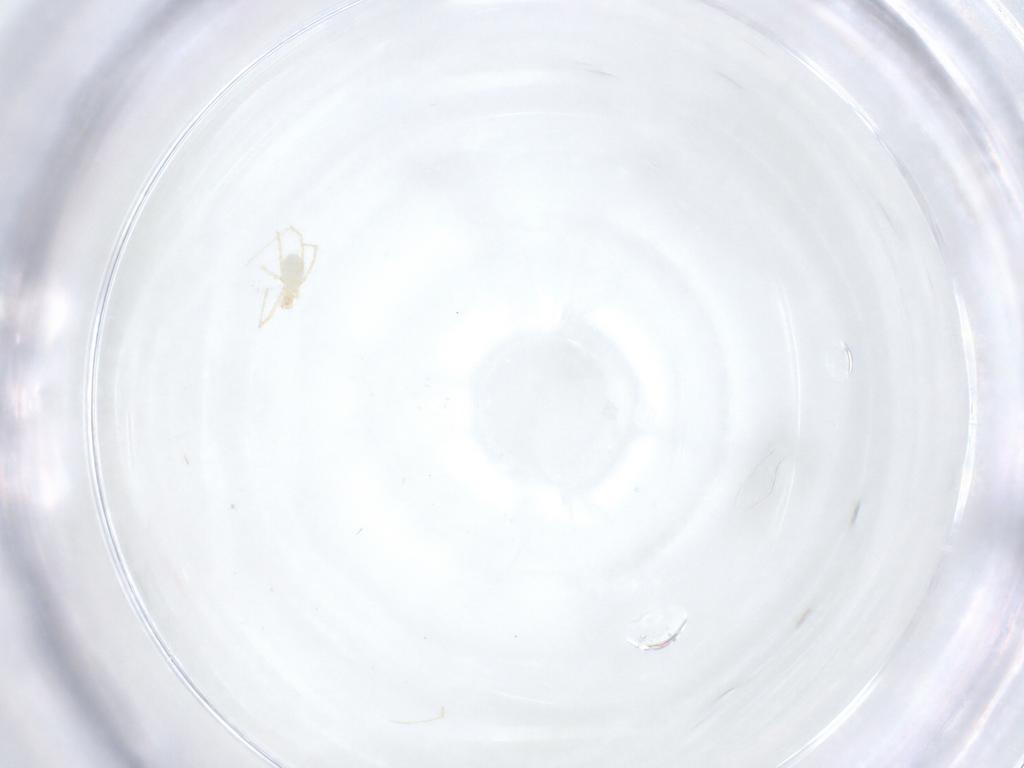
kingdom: Animalia
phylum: Arthropoda
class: Arachnida
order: Trombidiformes
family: Erythraeidae
